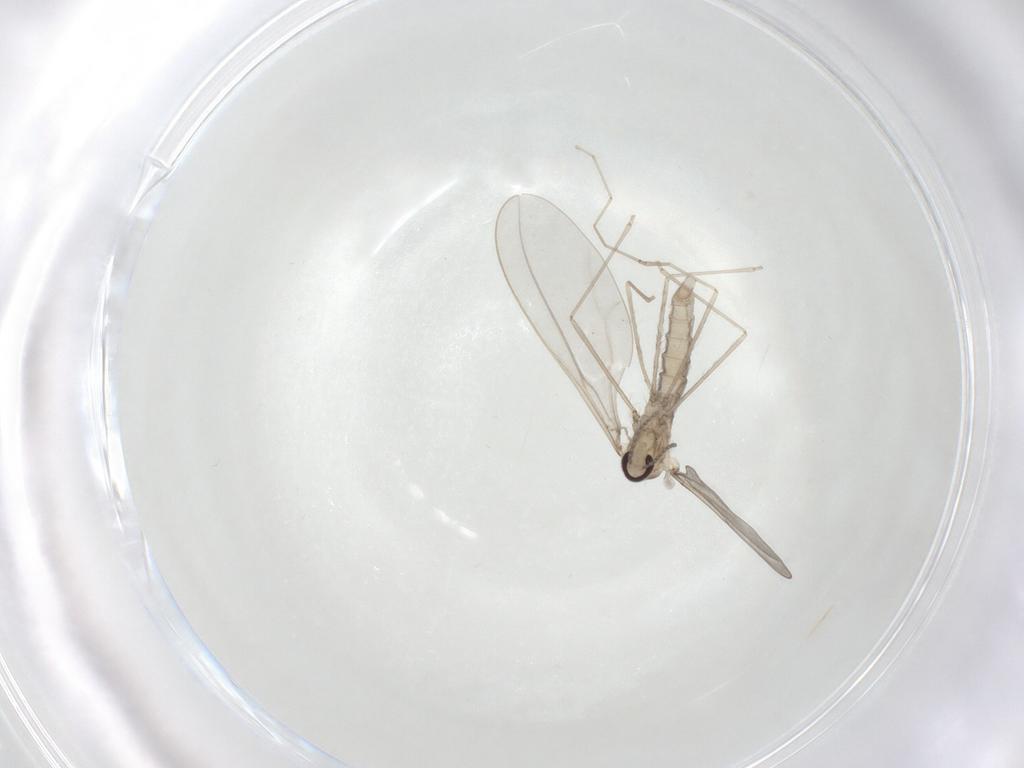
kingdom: Animalia
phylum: Arthropoda
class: Insecta
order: Diptera
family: Cecidomyiidae
